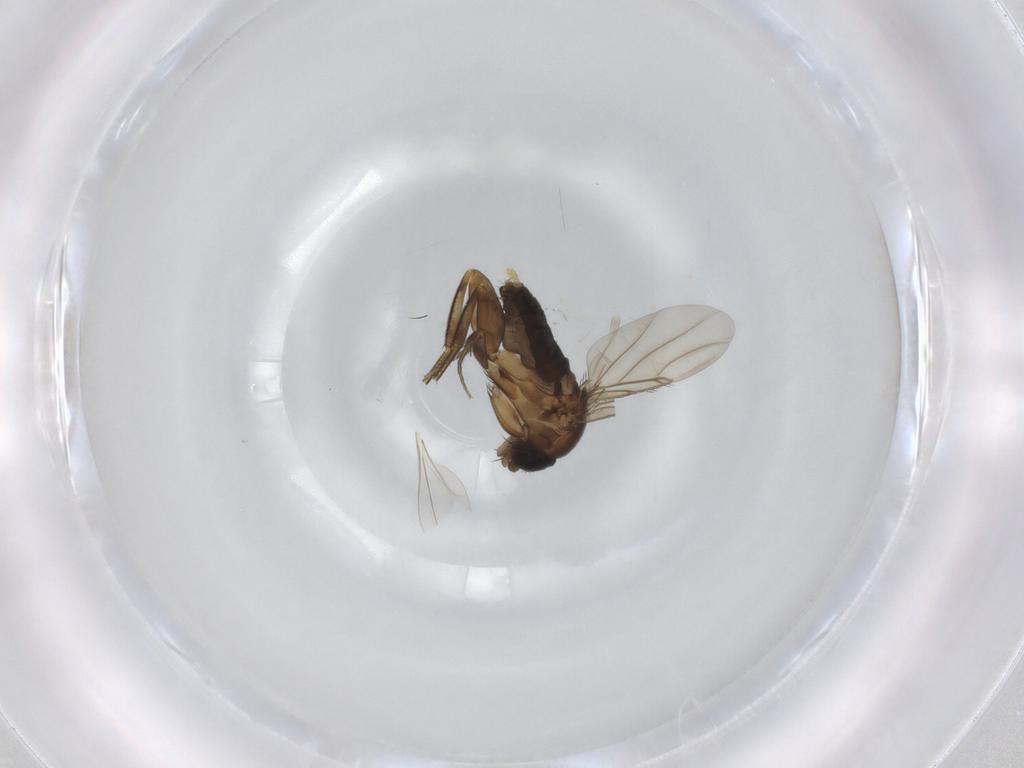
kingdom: Animalia
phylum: Arthropoda
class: Insecta
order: Diptera
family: Phoridae
